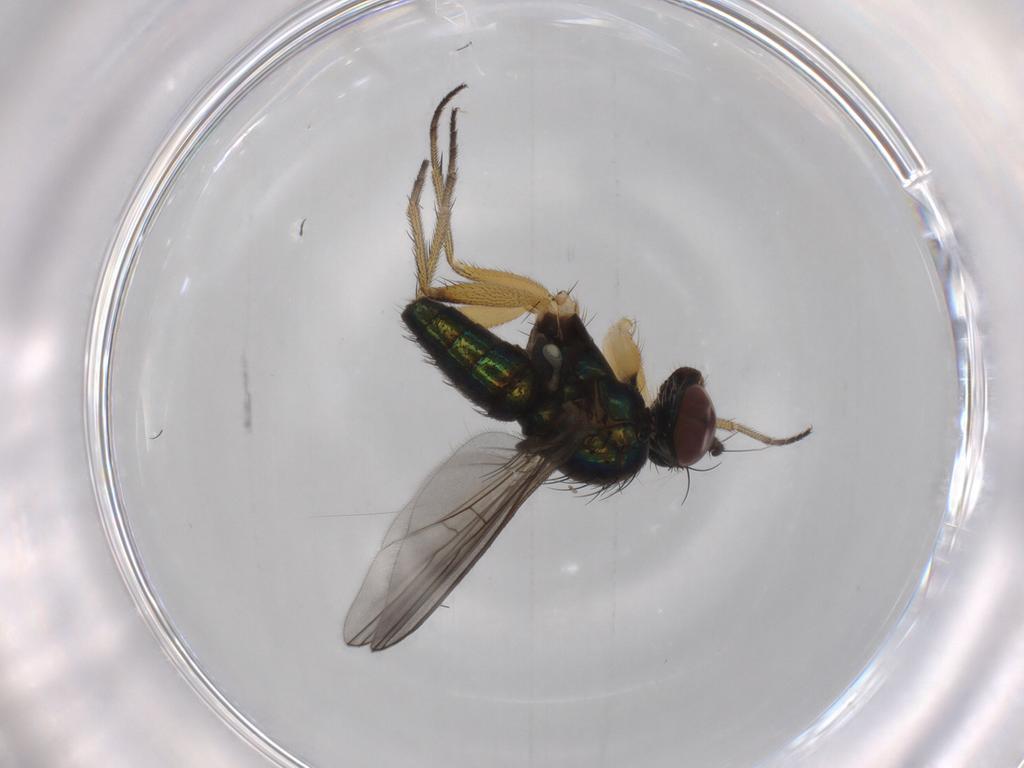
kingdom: Animalia
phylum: Arthropoda
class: Insecta
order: Diptera
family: Dolichopodidae
